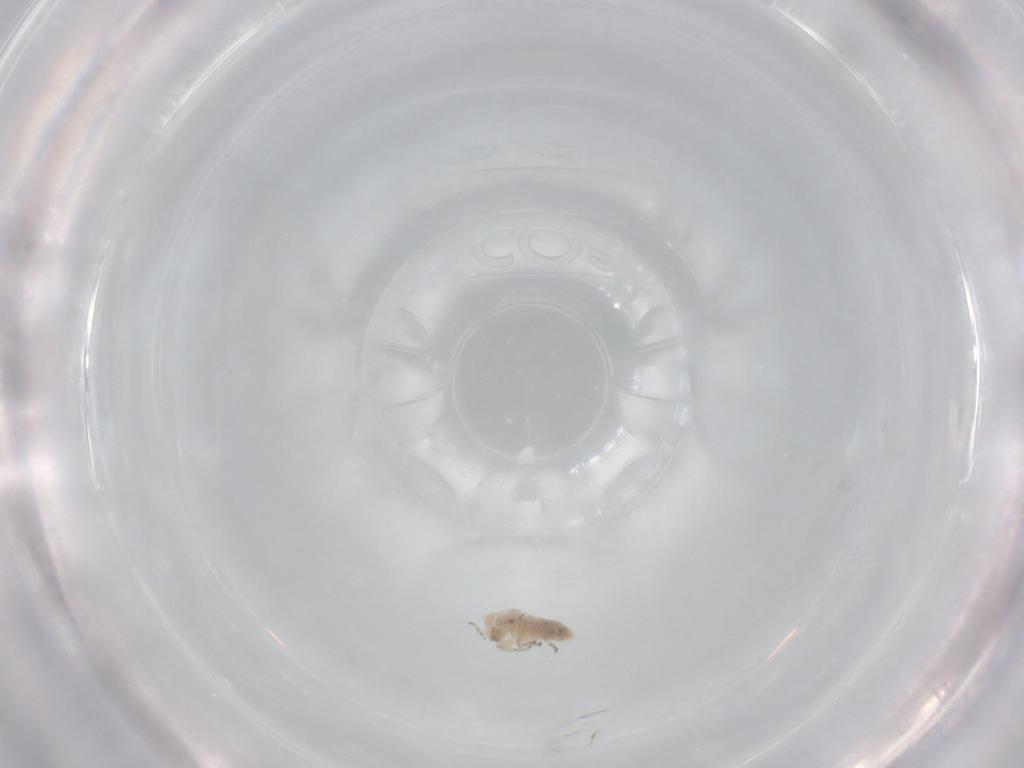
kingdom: Animalia
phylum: Arthropoda
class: Insecta
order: Psocodea
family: Peripsocidae
